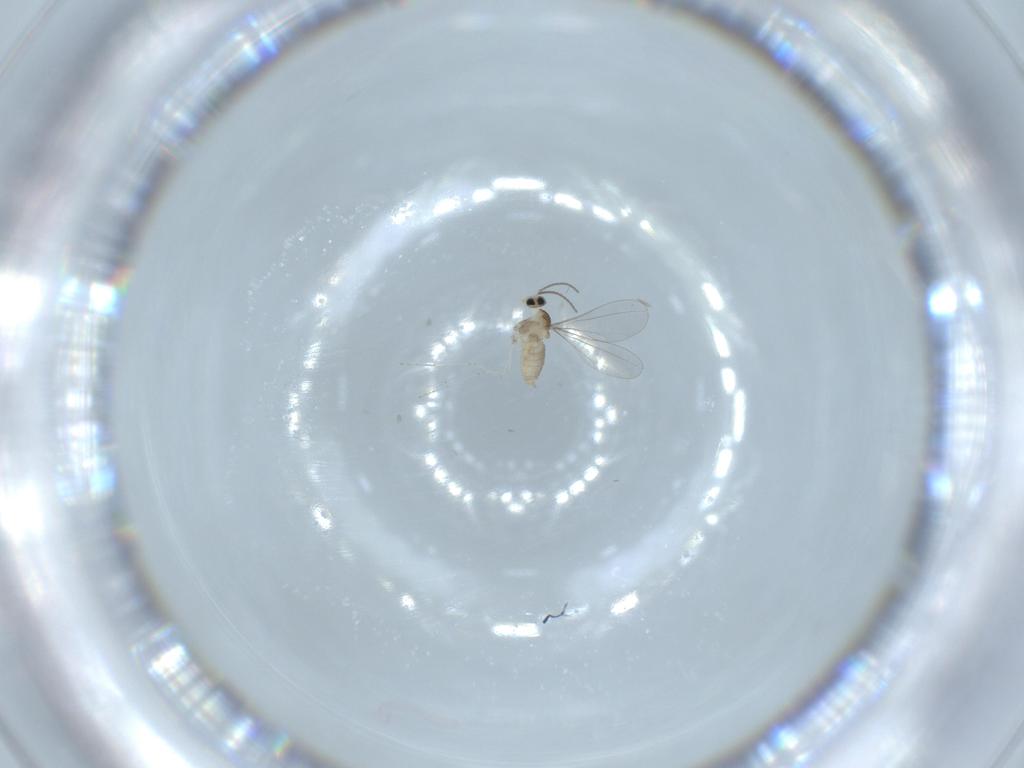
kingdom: Animalia
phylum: Arthropoda
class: Insecta
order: Diptera
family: Cecidomyiidae
